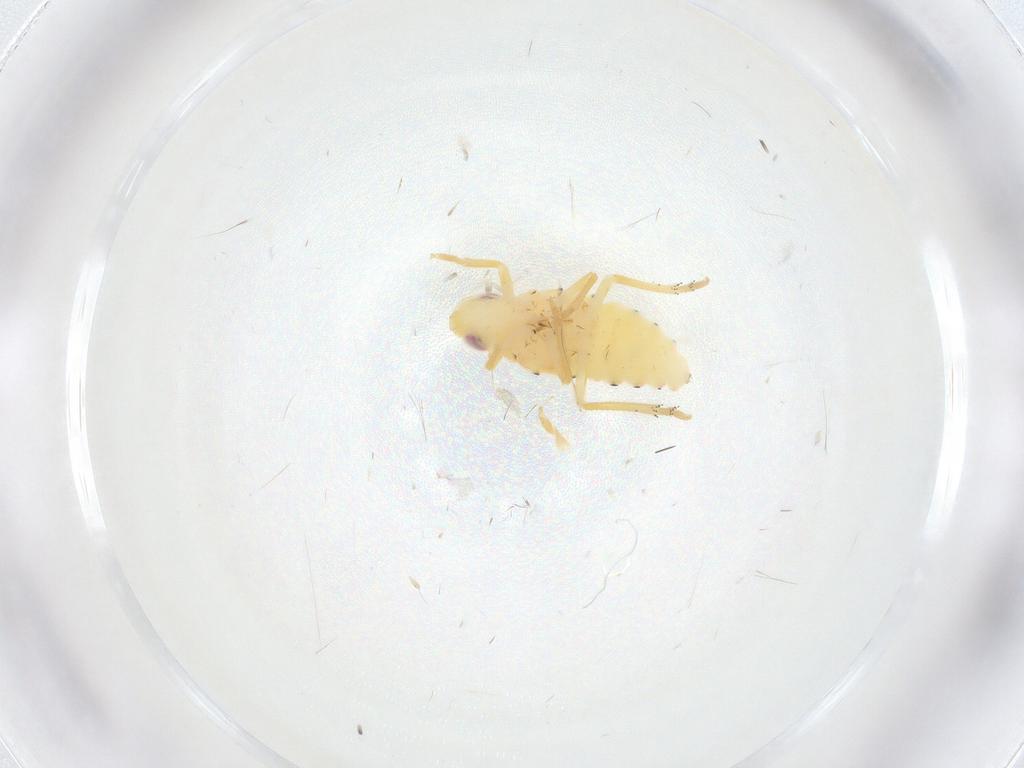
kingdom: Animalia
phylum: Arthropoda
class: Insecta
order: Hemiptera
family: Tropiduchidae
